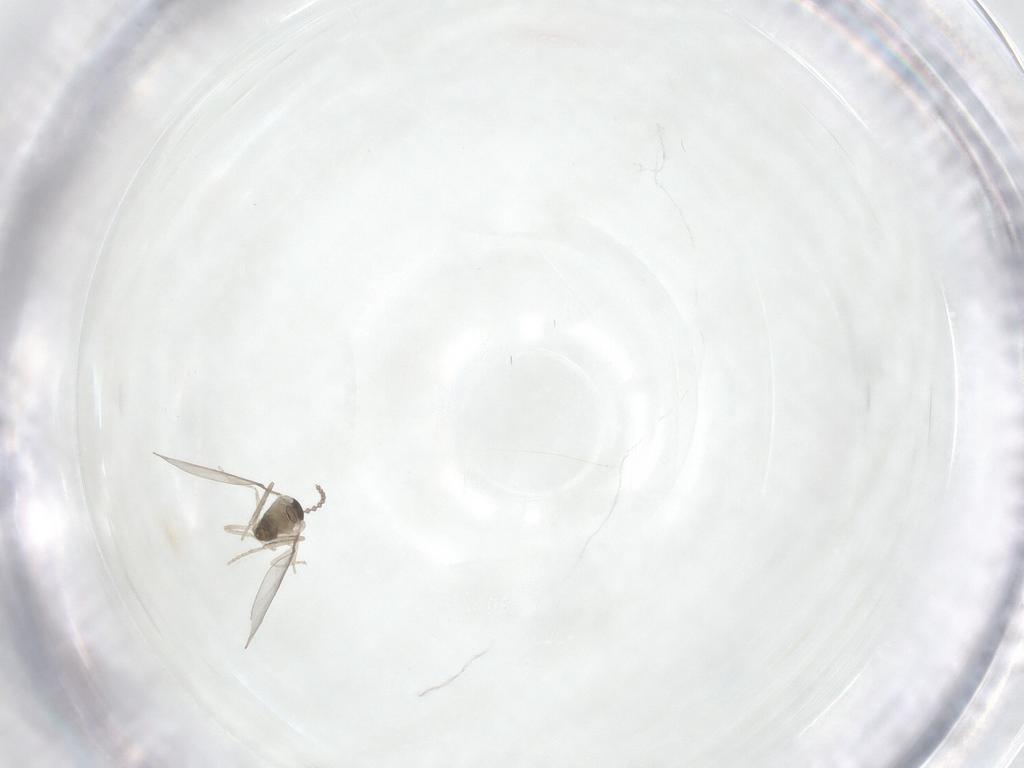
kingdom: Animalia
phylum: Arthropoda
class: Insecta
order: Diptera
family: Cecidomyiidae
